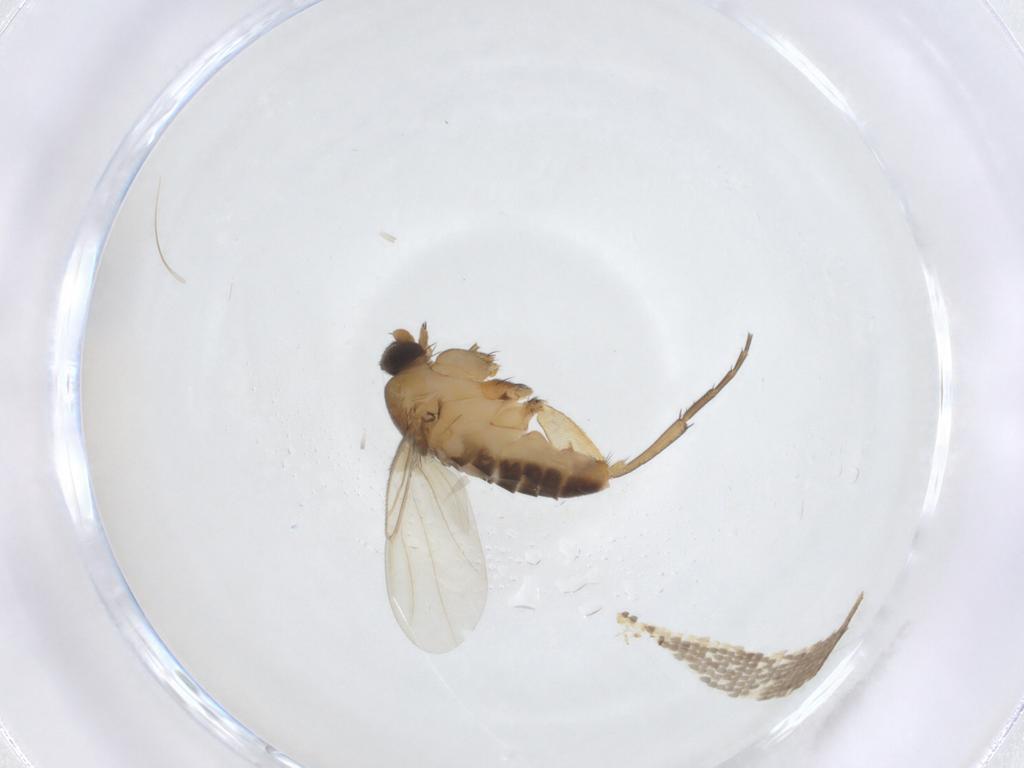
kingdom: Animalia
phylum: Arthropoda
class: Insecta
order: Diptera
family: Phoridae
